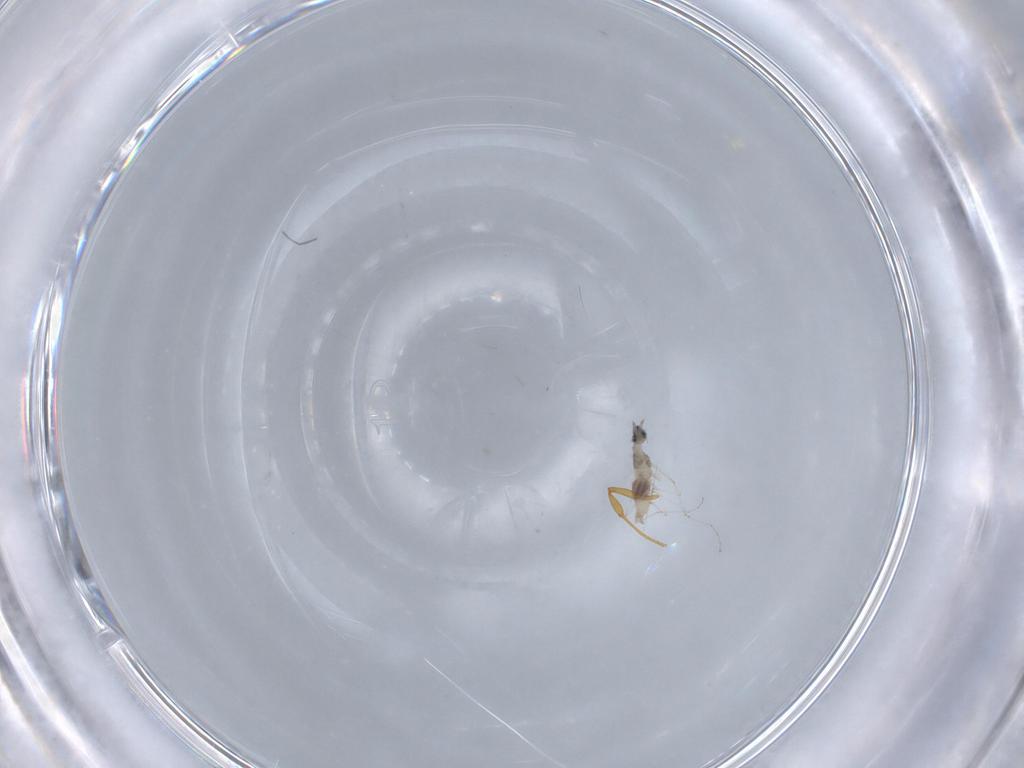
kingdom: Animalia
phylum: Arthropoda
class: Insecta
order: Diptera
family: Cecidomyiidae
